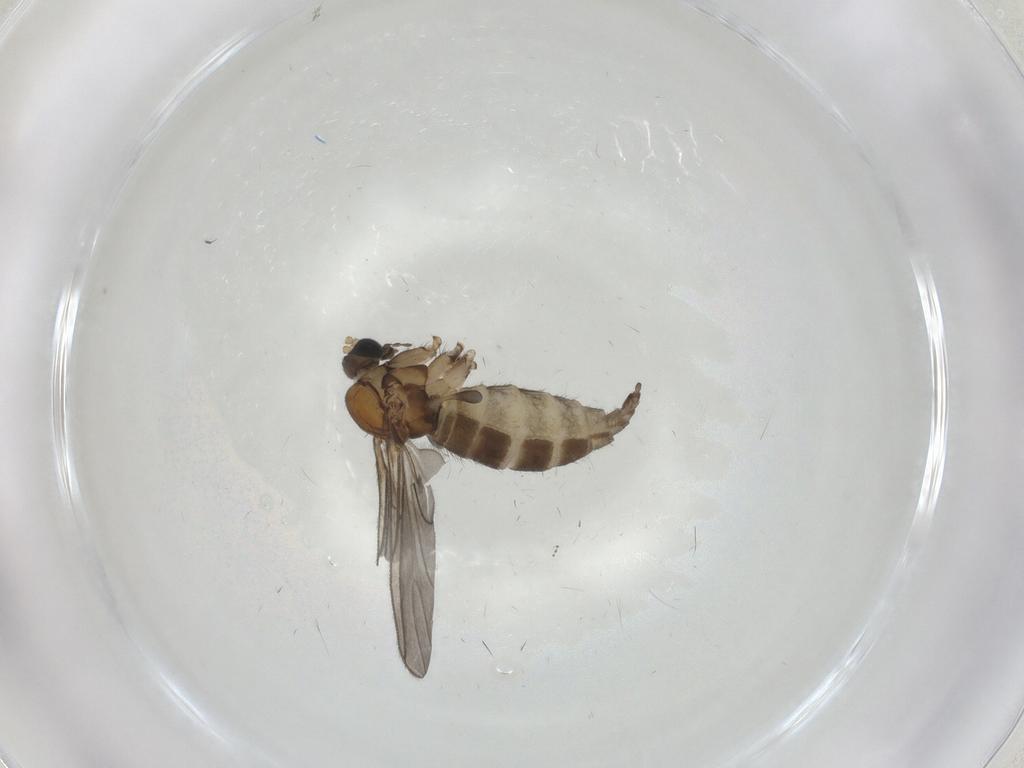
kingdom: Animalia
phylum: Arthropoda
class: Insecta
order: Diptera
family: Sciaridae
